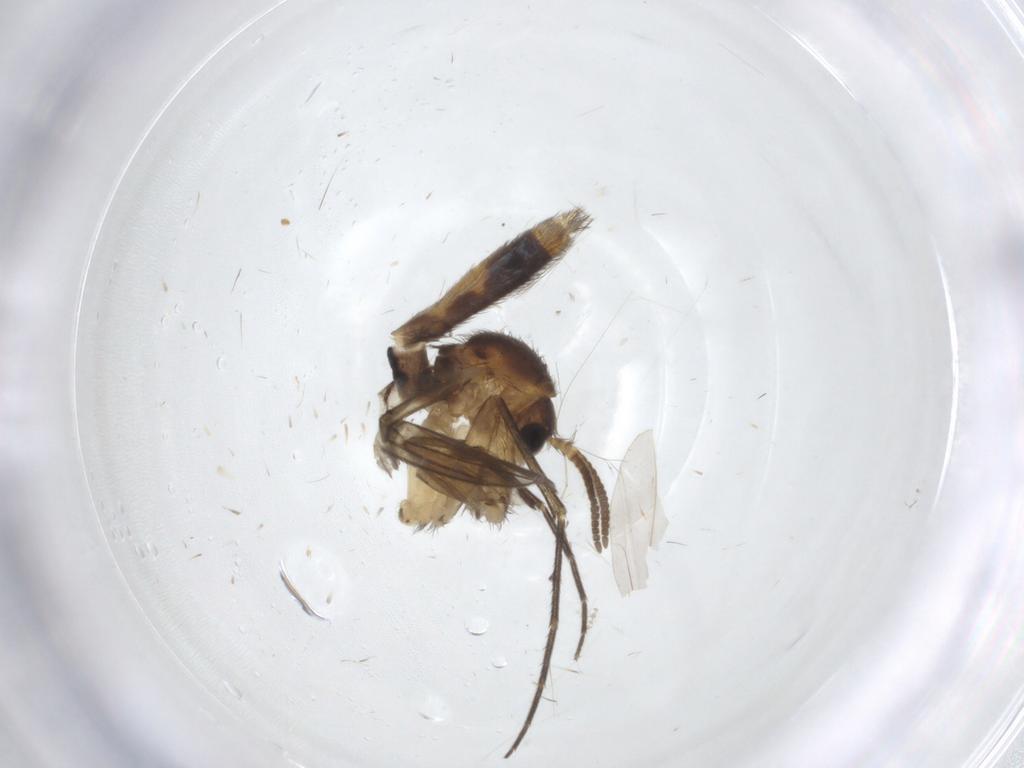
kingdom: Animalia
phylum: Arthropoda
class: Insecta
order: Diptera
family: Mycetophilidae
